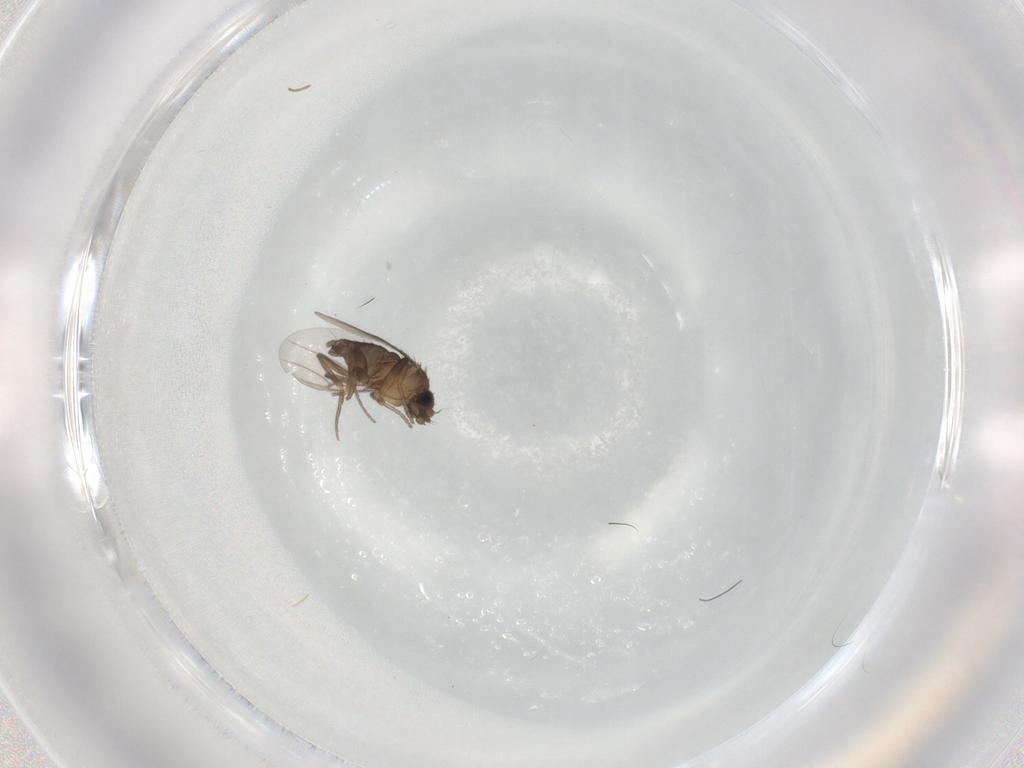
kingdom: Animalia
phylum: Arthropoda
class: Insecta
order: Diptera
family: Phoridae
